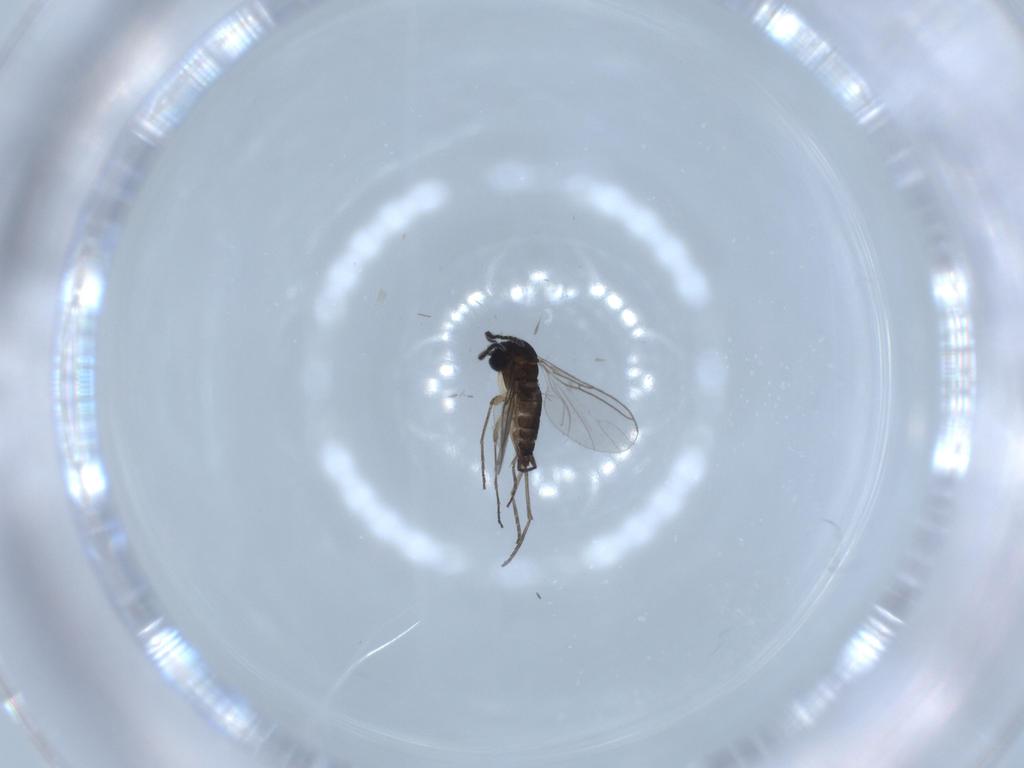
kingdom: Animalia
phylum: Arthropoda
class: Insecta
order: Diptera
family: Sciaridae
